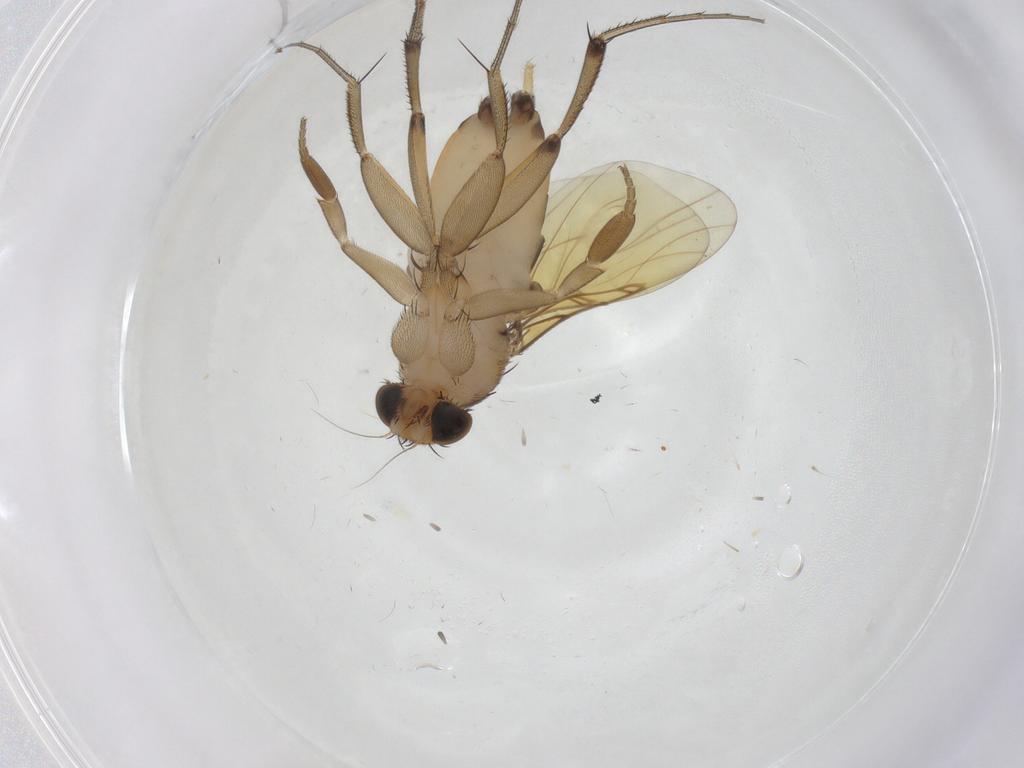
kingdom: Animalia
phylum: Arthropoda
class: Insecta
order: Diptera
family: Phoridae
